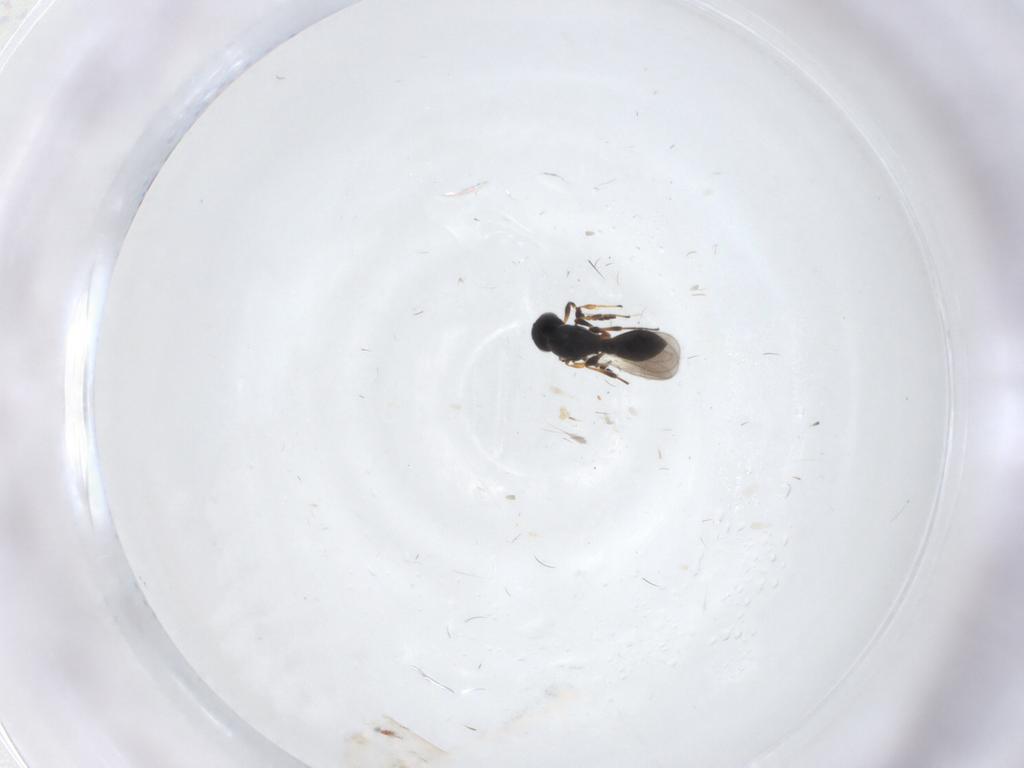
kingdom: Animalia
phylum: Arthropoda
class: Insecta
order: Hymenoptera
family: Platygastridae
